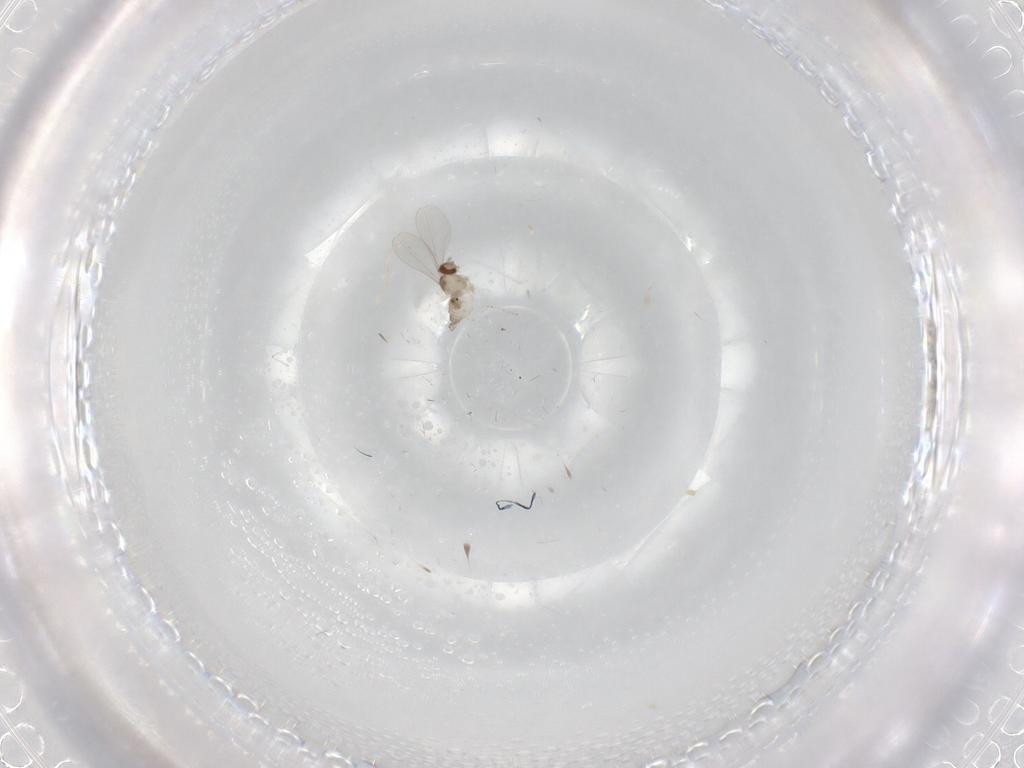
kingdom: Animalia
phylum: Arthropoda
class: Insecta
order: Diptera
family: Cecidomyiidae
